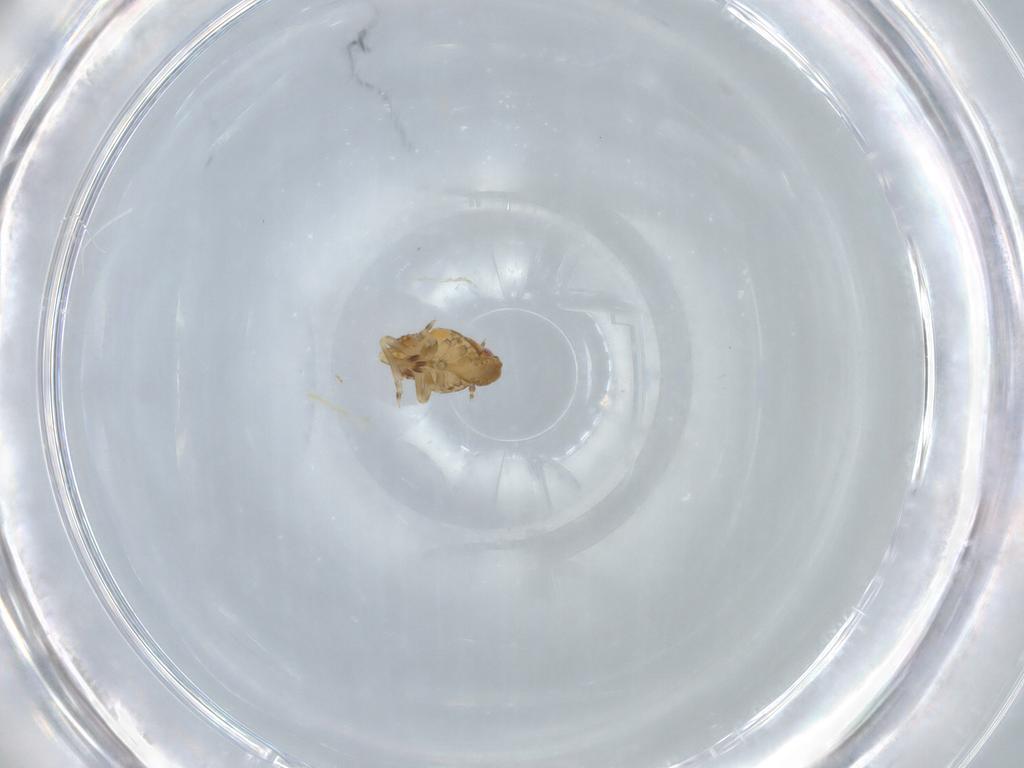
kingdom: Animalia
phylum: Arthropoda
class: Insecta
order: Hemiptera
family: Flatidae
